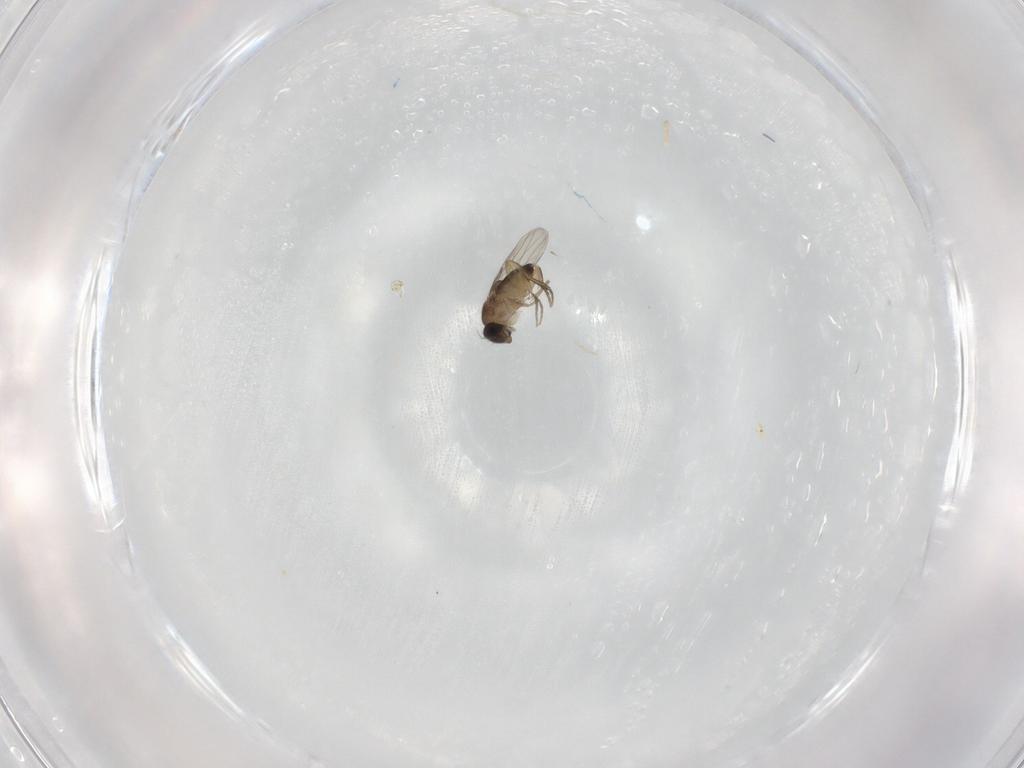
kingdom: Animalia
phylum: Arthropoda
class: Insecta
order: Diptera
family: Phoridae
